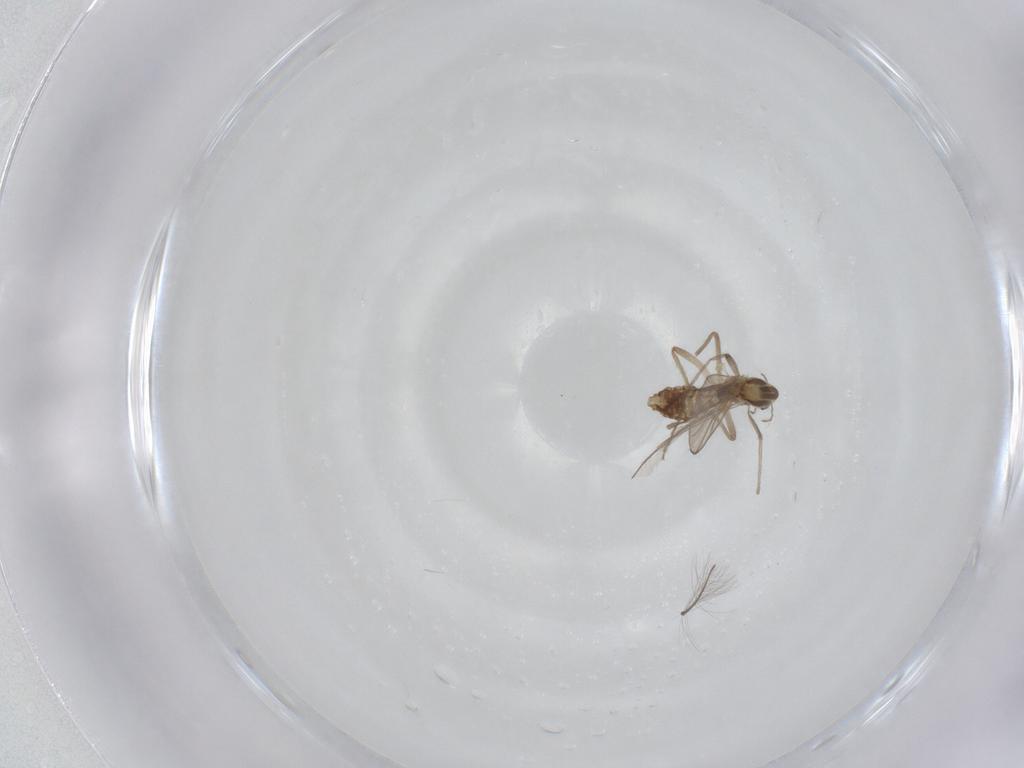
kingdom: Animalia
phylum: Arthropoda
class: Insecta
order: Diptera
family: Chironomidae
